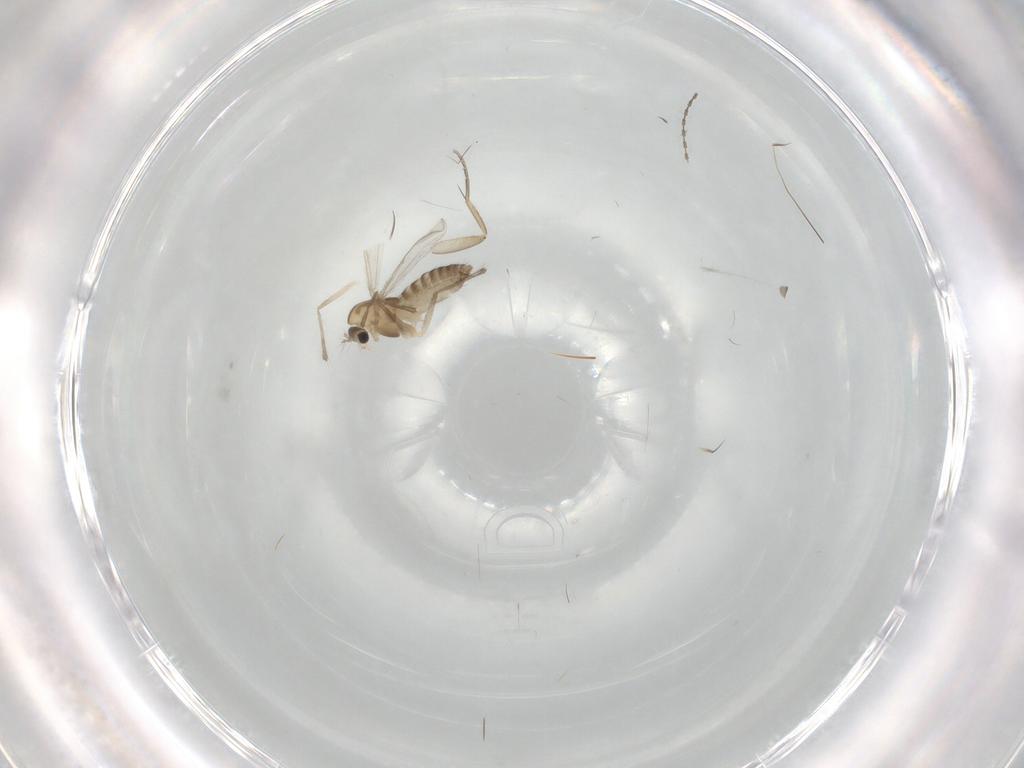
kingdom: Animalia
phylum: Arthropoda
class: Insecta
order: Diptera
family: Chironomidae
